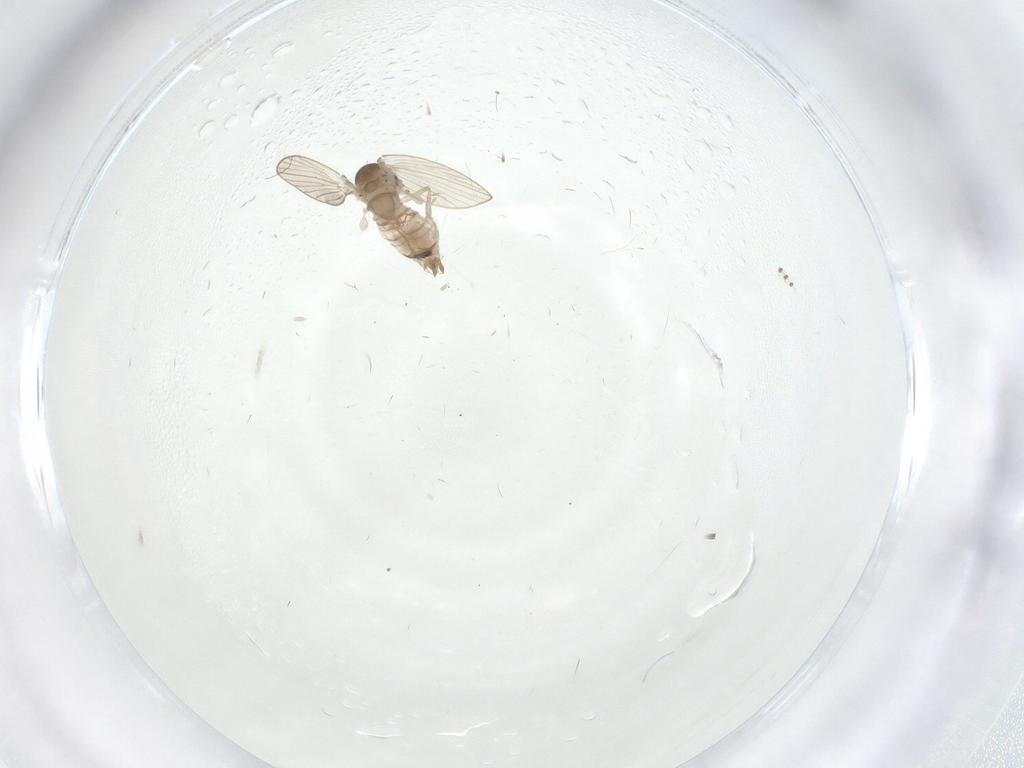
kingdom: Animalia
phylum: Arthropoda
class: Insecta
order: Diptera
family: Psychodidae
